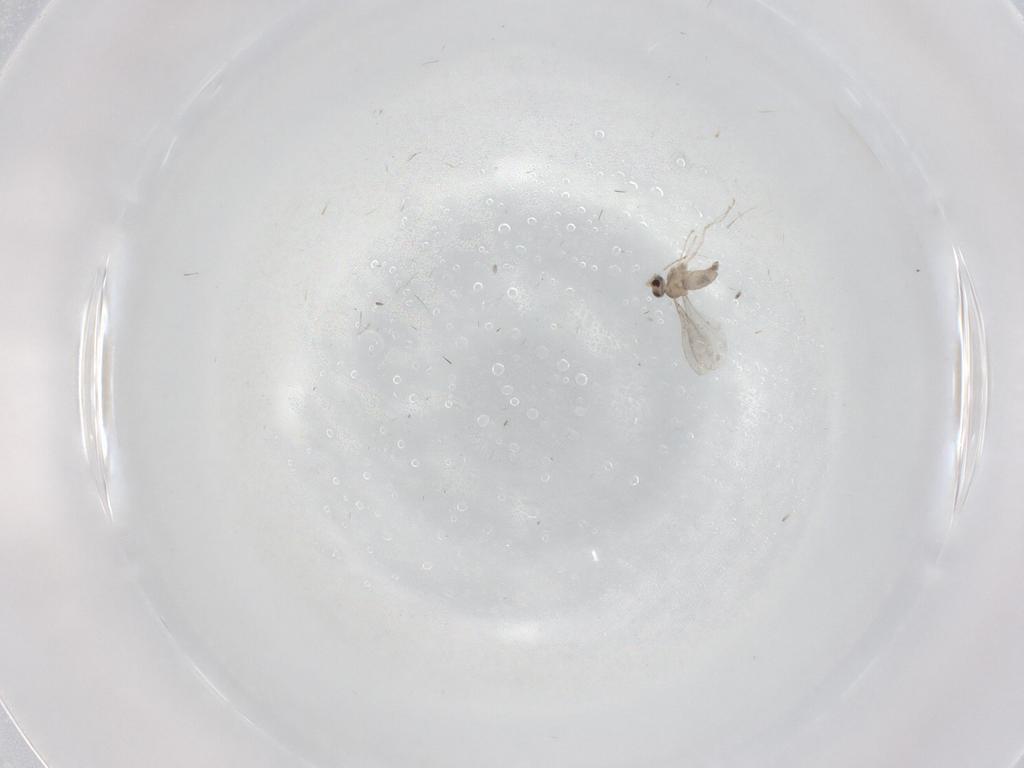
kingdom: Animalia
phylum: Arthropoda
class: Insecta
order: Diptera
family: Cecidomyiidae
